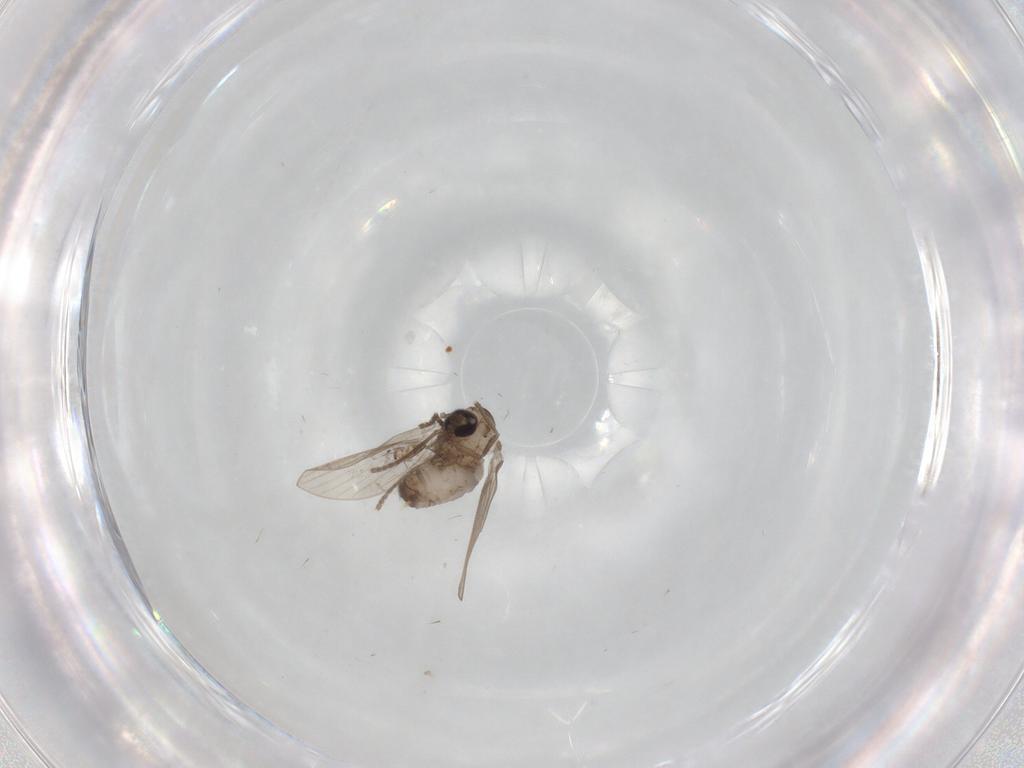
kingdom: Animalia
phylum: Arthropoda
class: Insecta
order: Diptera
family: Psychodidae
